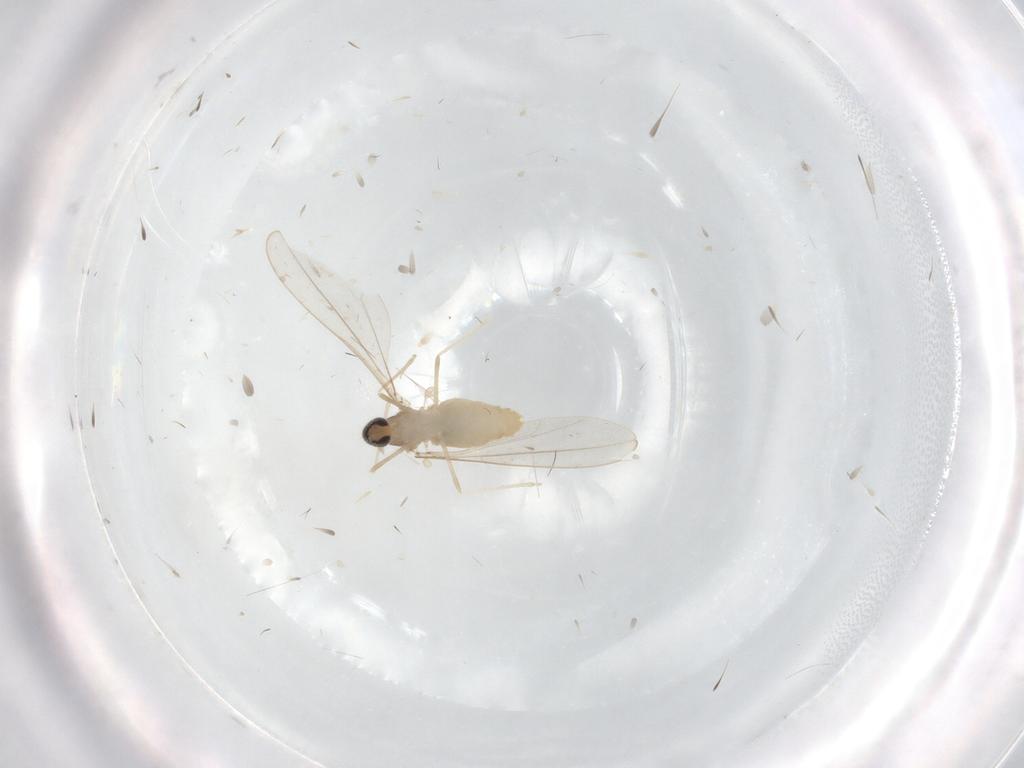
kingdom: Animalia
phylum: Arthropoda
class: Insecta
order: Diptera
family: Cecidomyiidae
